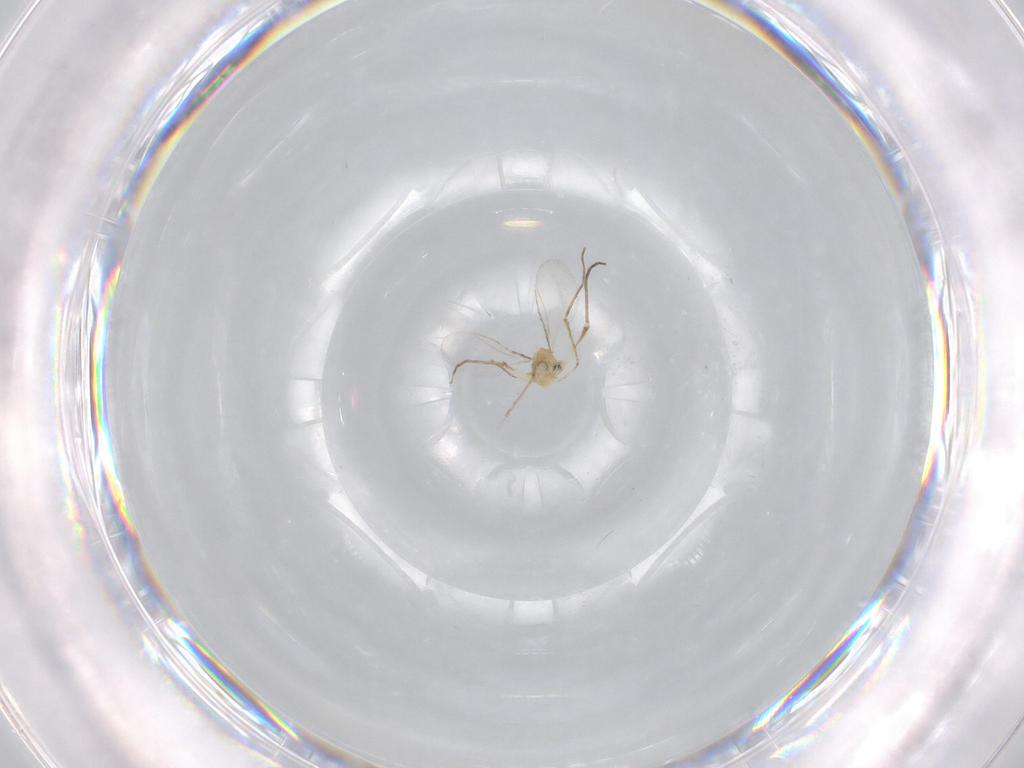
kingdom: Animalia
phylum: Arthropoda
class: Insecta
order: Diptera
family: Cecidomyiidae
